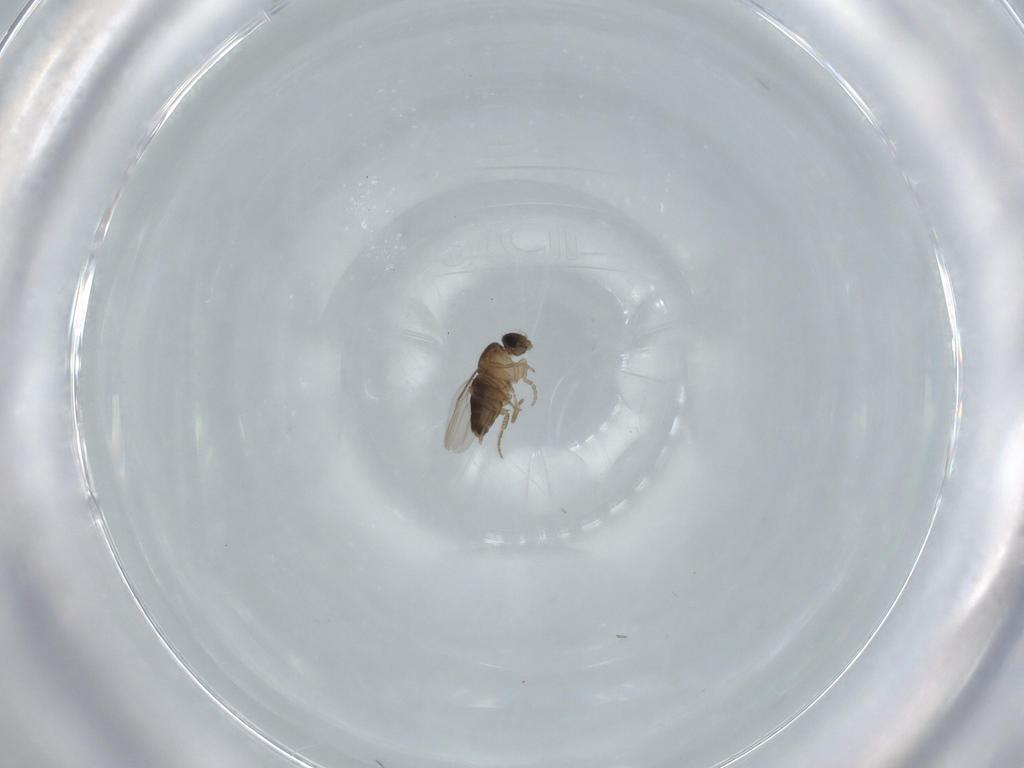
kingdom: Animalia
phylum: Arthropoda
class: Insecta
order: Diptera
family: Phoridae
